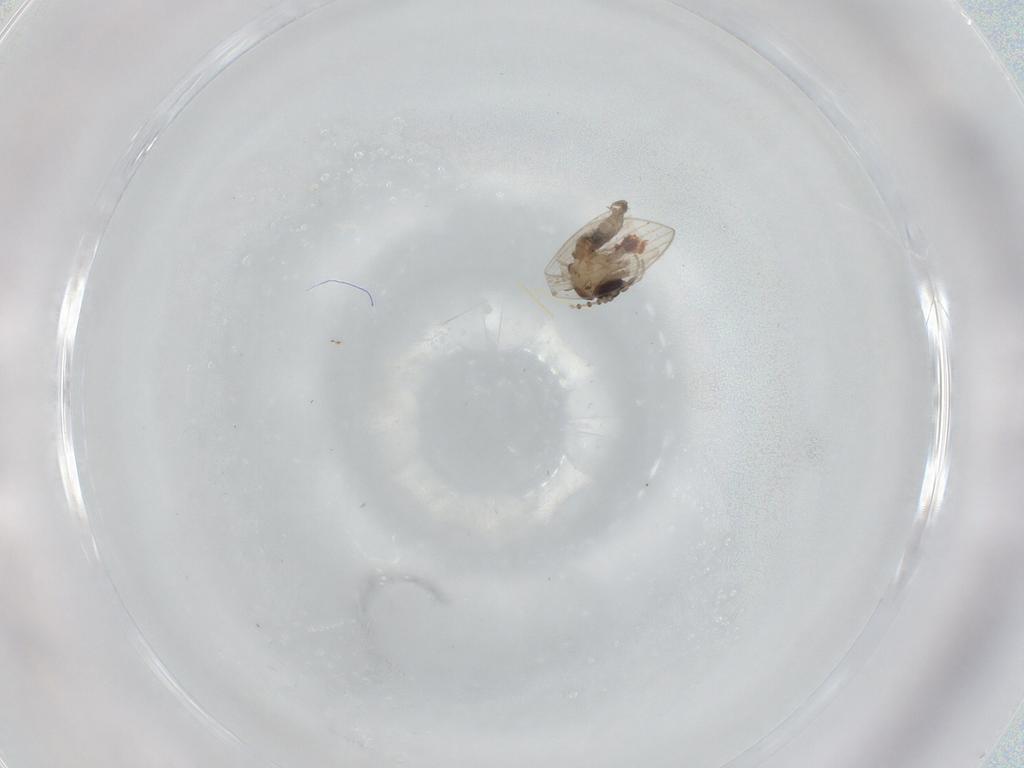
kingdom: Animalia
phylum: Arthropoda
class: Insecta
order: Diptera
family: Psychodidae
